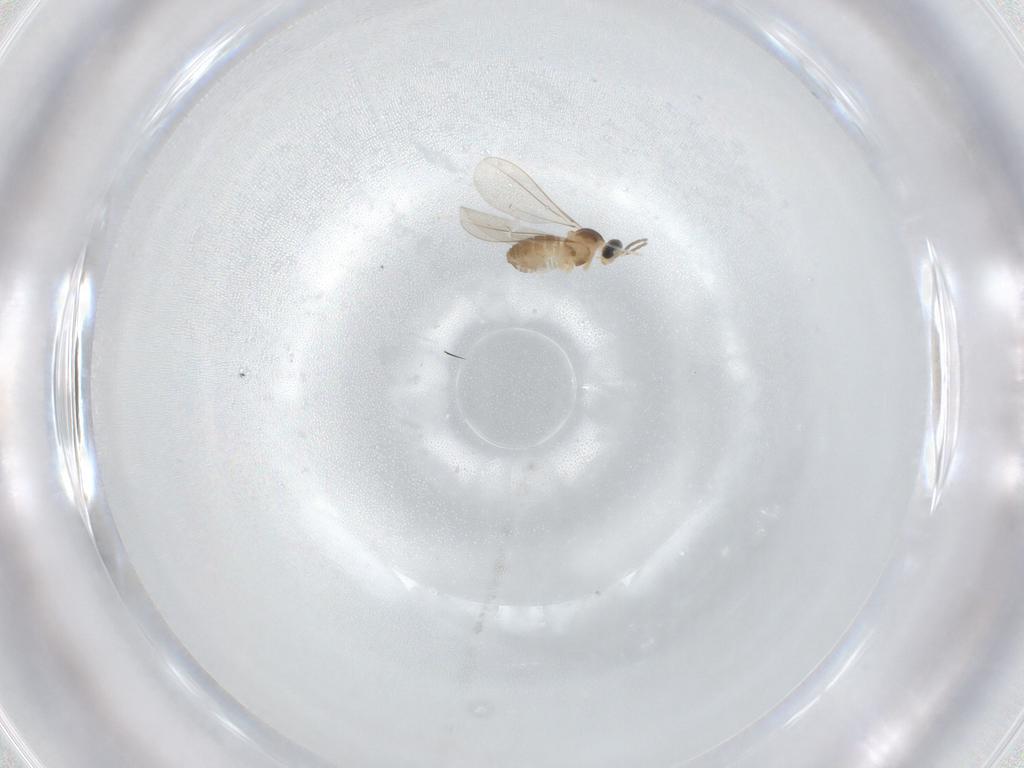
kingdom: Animalia
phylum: Arthropoda
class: Insecta
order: Diptera
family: Cecidomyiidae
